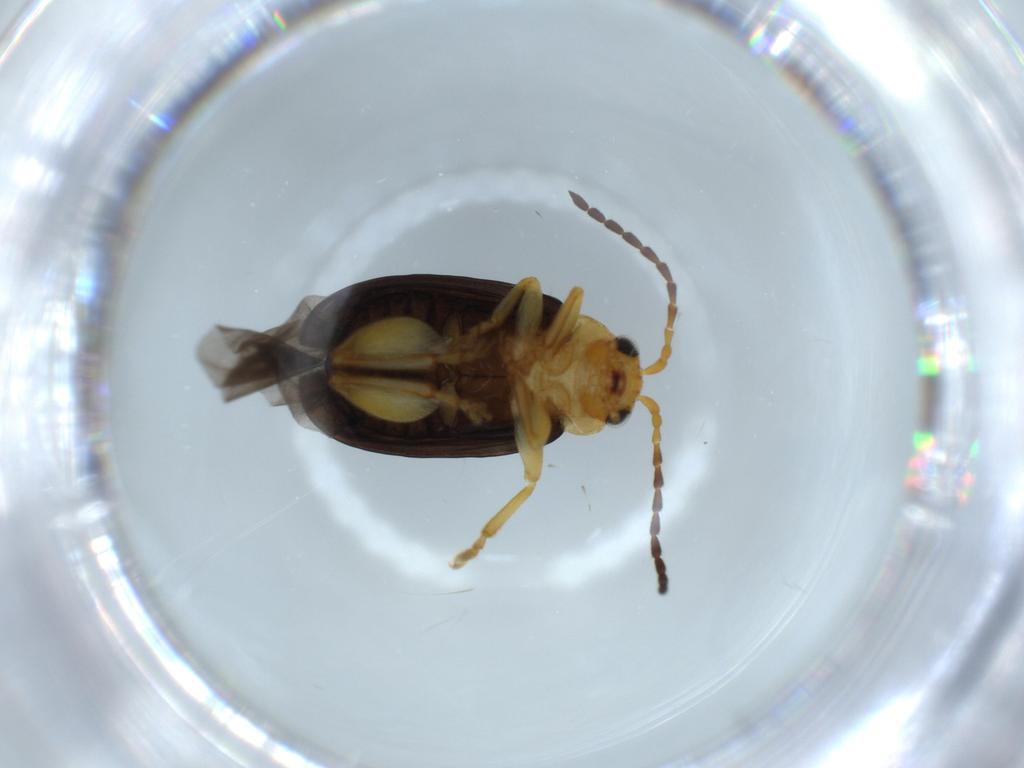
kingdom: Animalia
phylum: Arthropoda
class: Insecta
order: Coleoptera
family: Chrysomelidae
